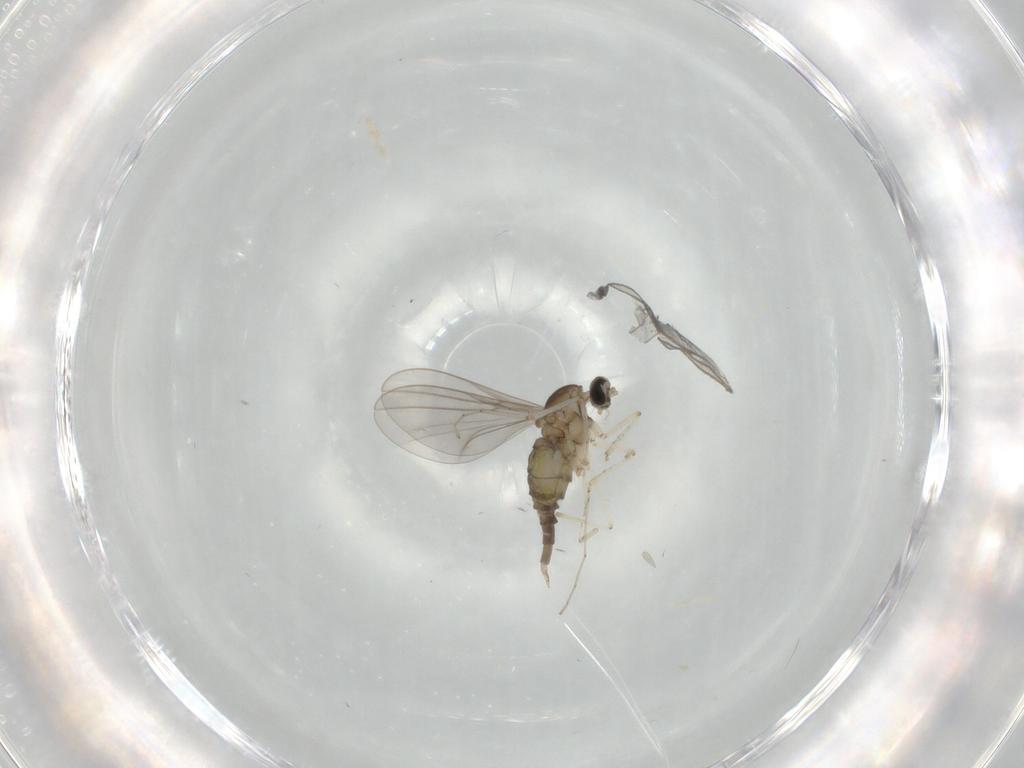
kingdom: Animalia
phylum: Arthropoda
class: Insecta
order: Diptera
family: Cecidomyiidae
